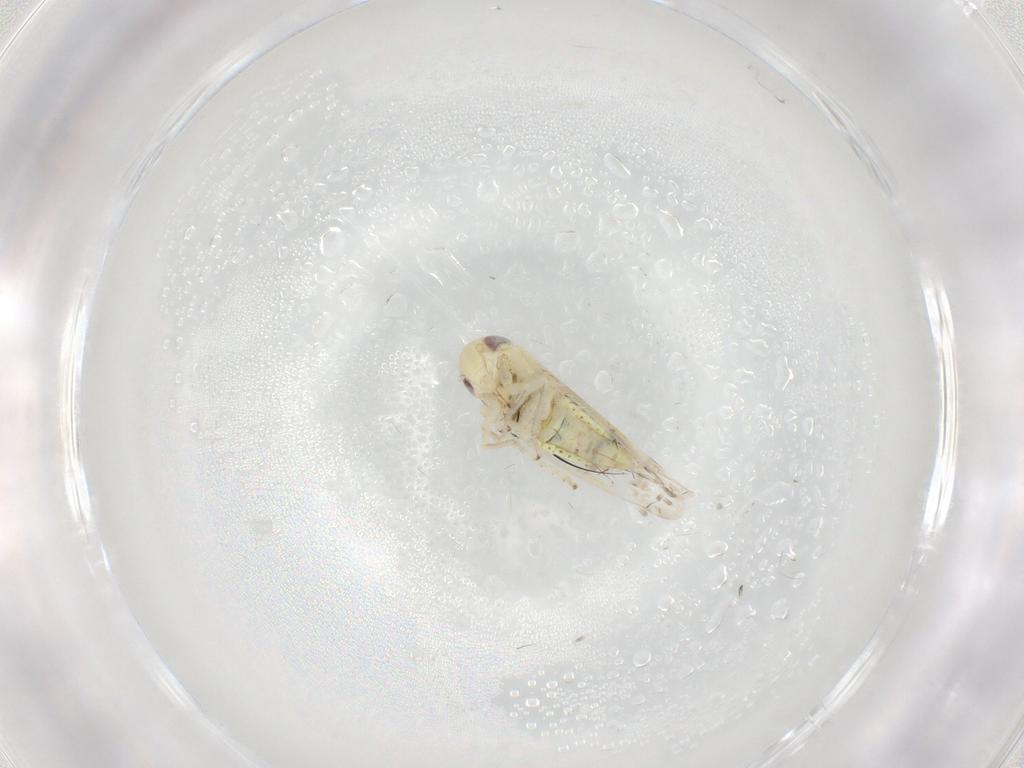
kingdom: Animalia
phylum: Arthropoda
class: Insecta
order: Hemiptera
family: Cicadellidae
